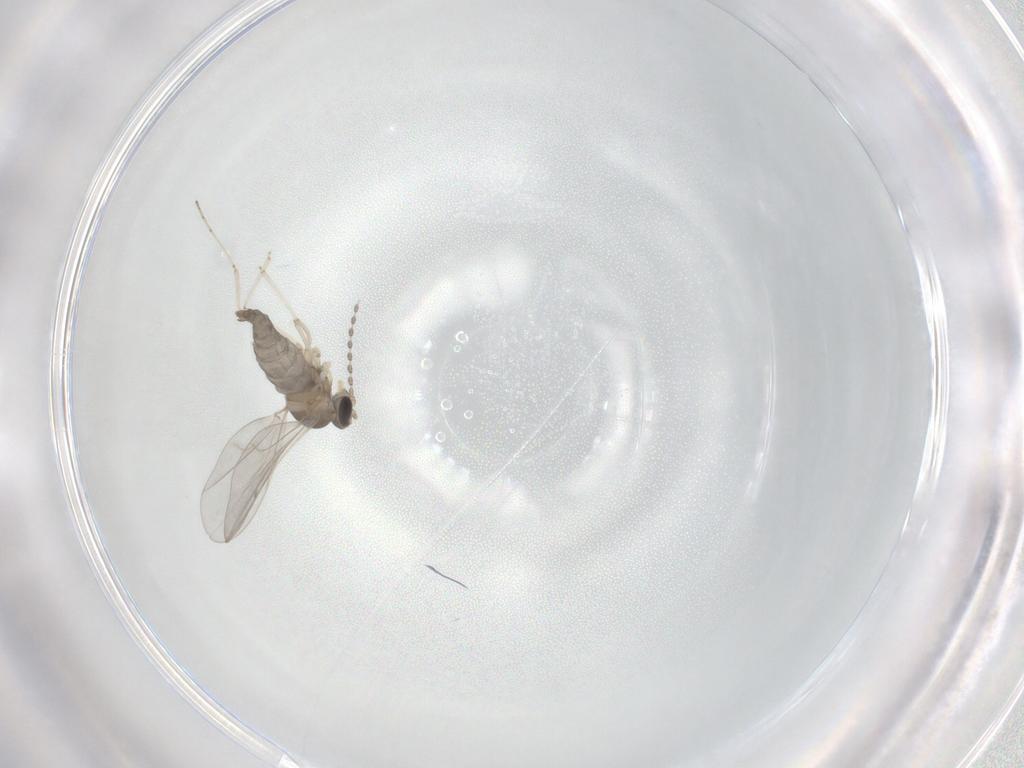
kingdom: Animalia
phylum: Arthropoda
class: Insecta
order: Diptera
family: Cecidomyiidae
